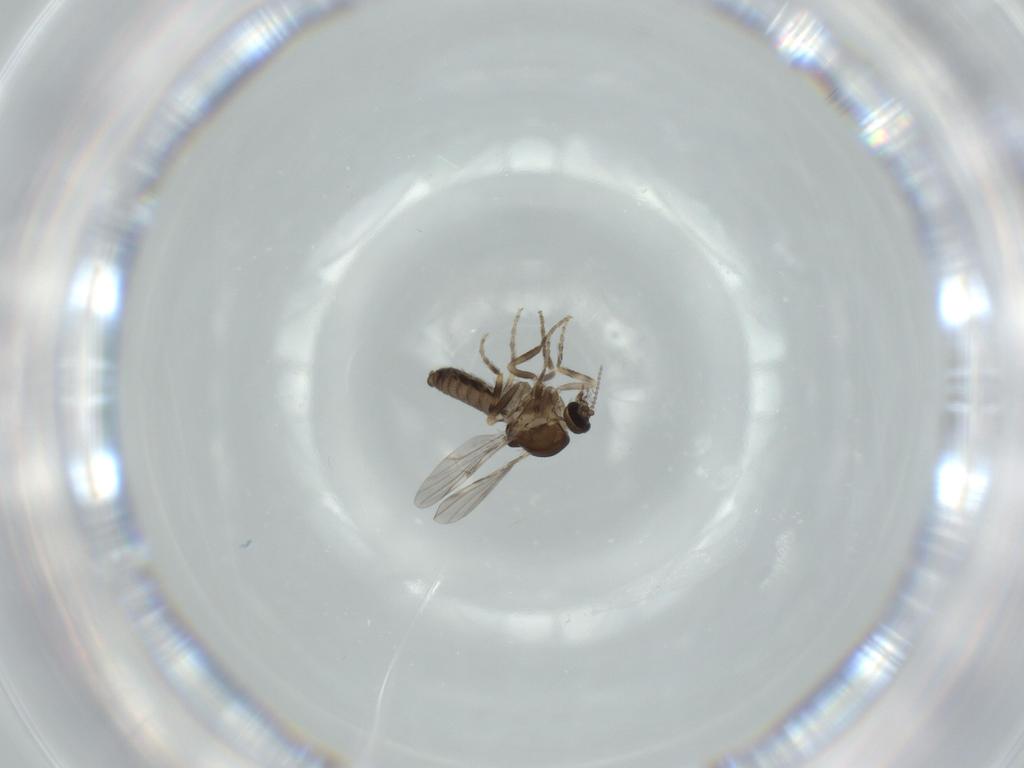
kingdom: Animalia
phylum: Arthropoda
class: Insecta
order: Diptera
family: Ceratopogonidae
